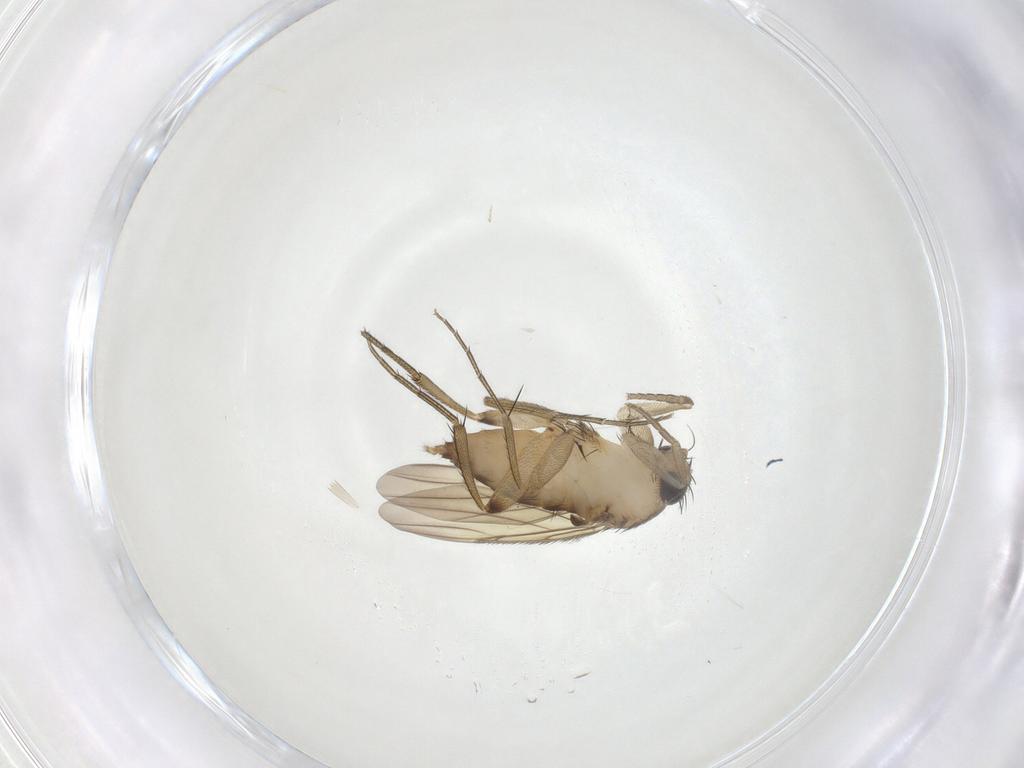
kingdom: Animalia
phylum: Arthropoda
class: Insecta
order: Diptera
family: Phoridae
